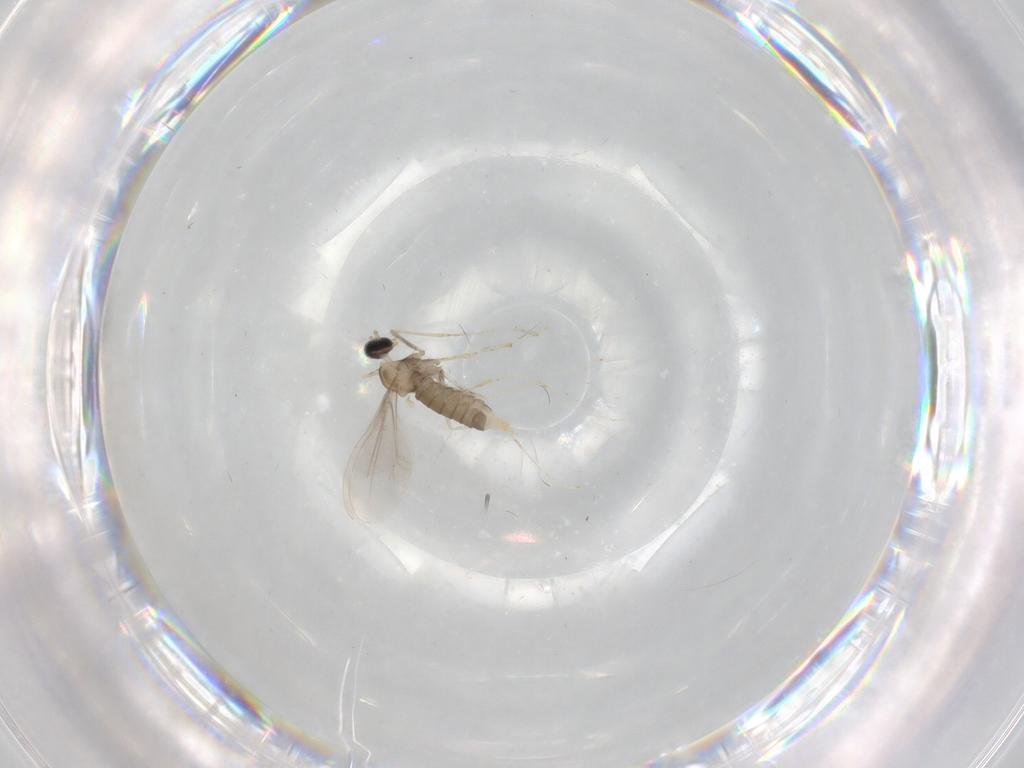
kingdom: Animalia
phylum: Arthropoda
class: Insecta
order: Diptera
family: Cecidomyiidae
